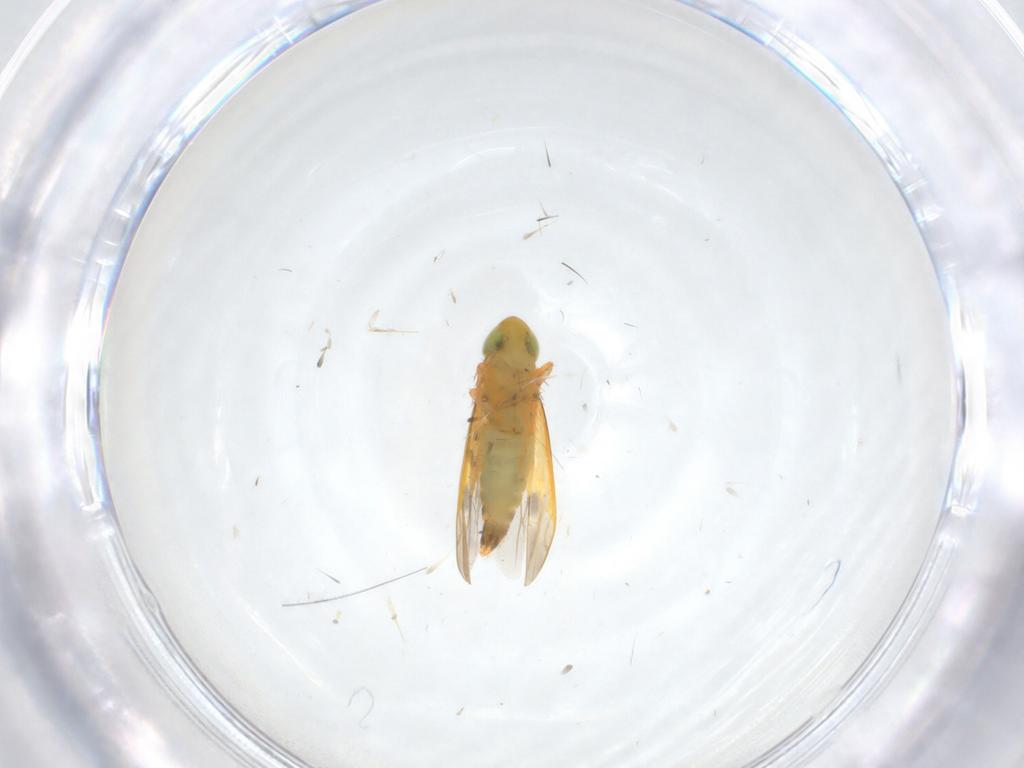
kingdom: Animalia
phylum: Arthropoda
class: Insecta
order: Hemiptera
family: Cicadellidae
